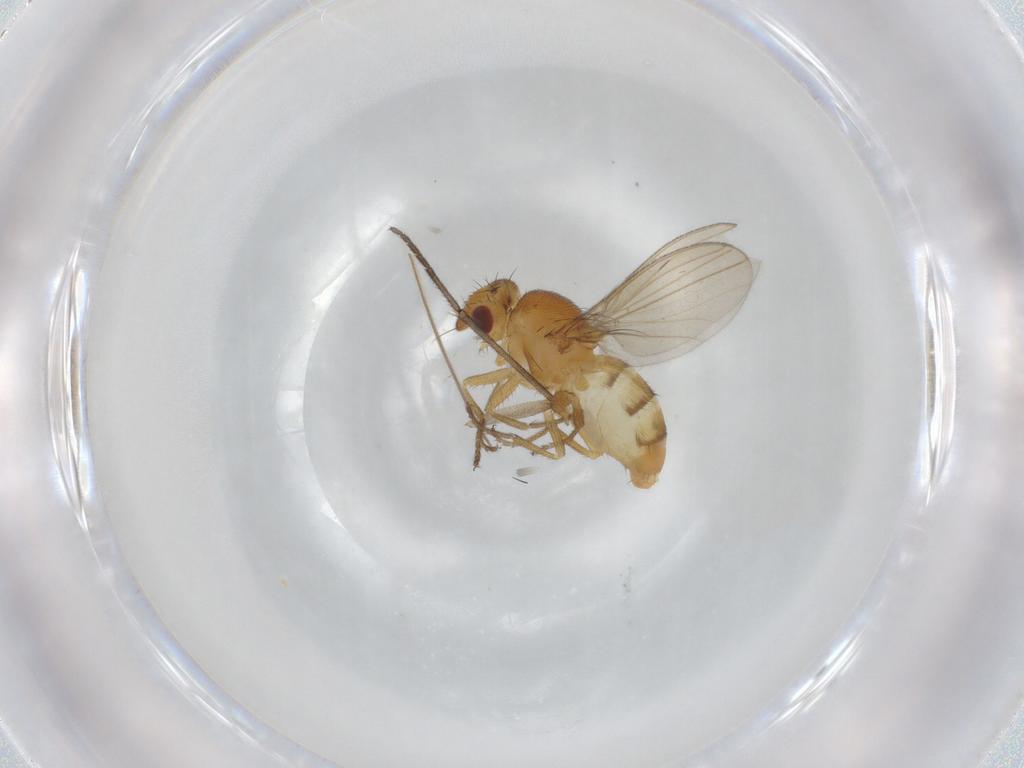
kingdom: Animalia
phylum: Arthropoda
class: Insecta
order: Diptera
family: Sciaridae
